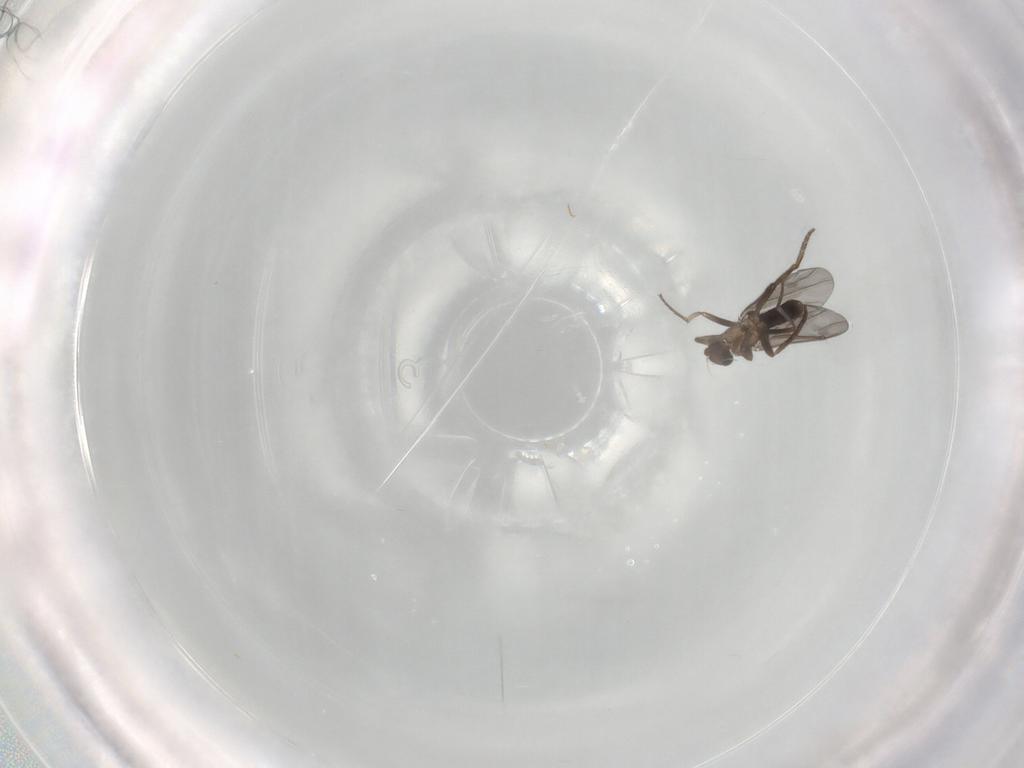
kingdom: Animalia
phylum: Arthropoda
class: Insecta
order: Diptera
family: Phoridae
